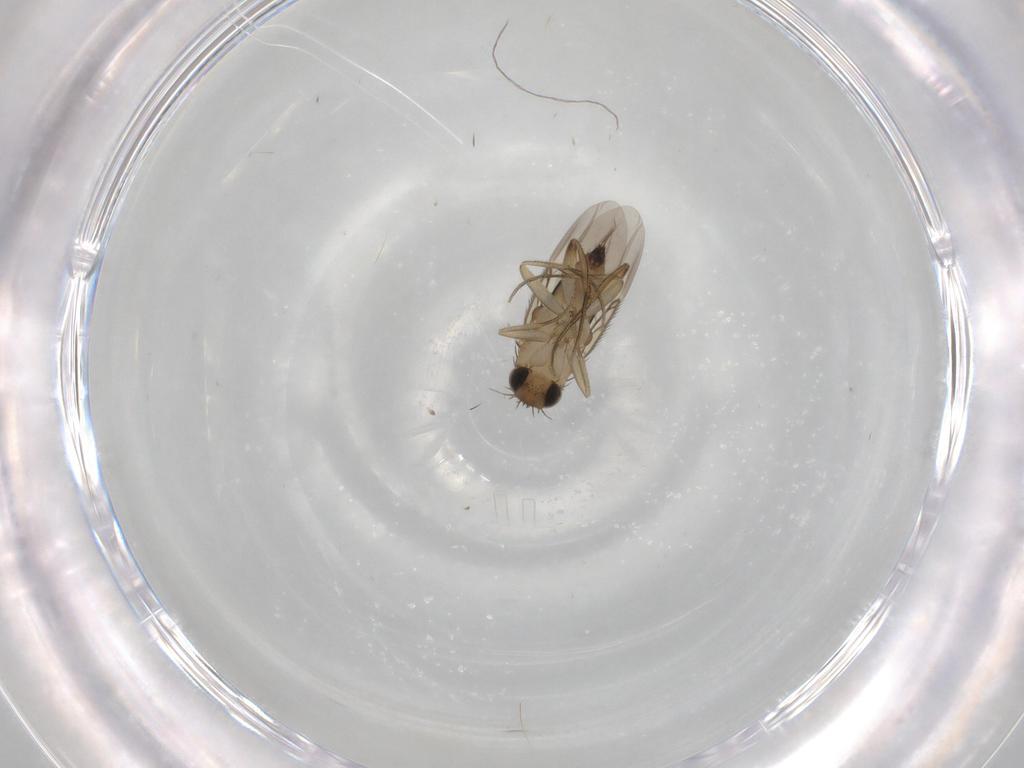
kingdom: Animalia
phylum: Arthropoda
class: Insecta
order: Diptera
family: Phoridae
